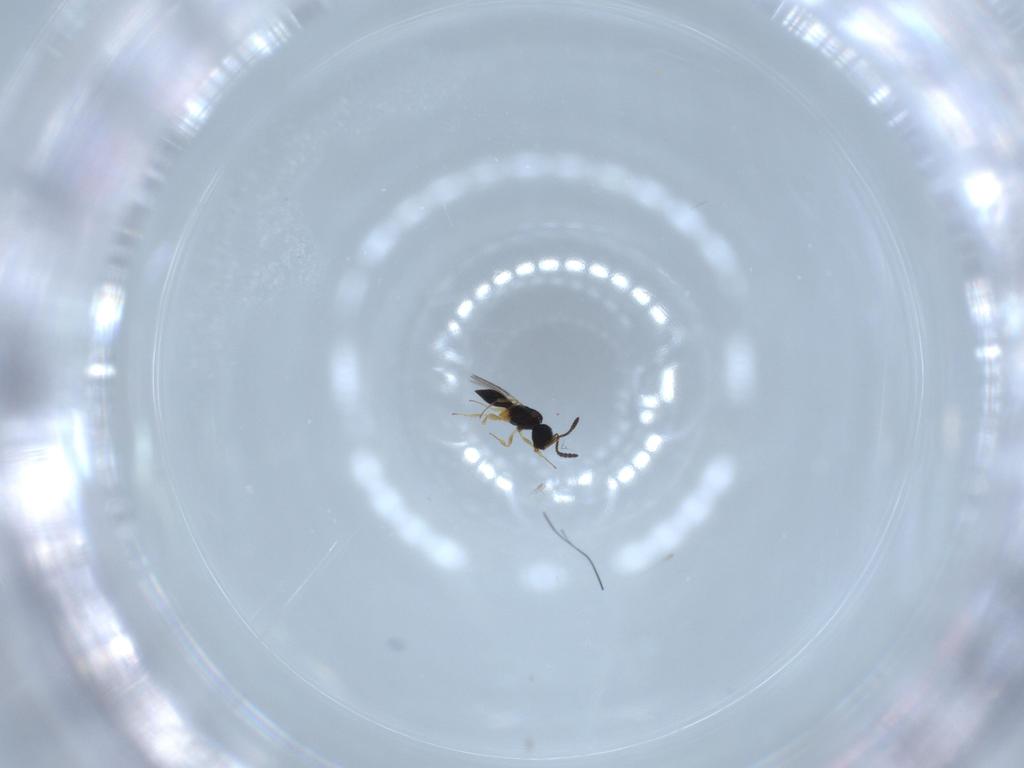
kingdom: Animalia
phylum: Arthropoda
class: Insecta
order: Hymenoptera
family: Scelionidae
